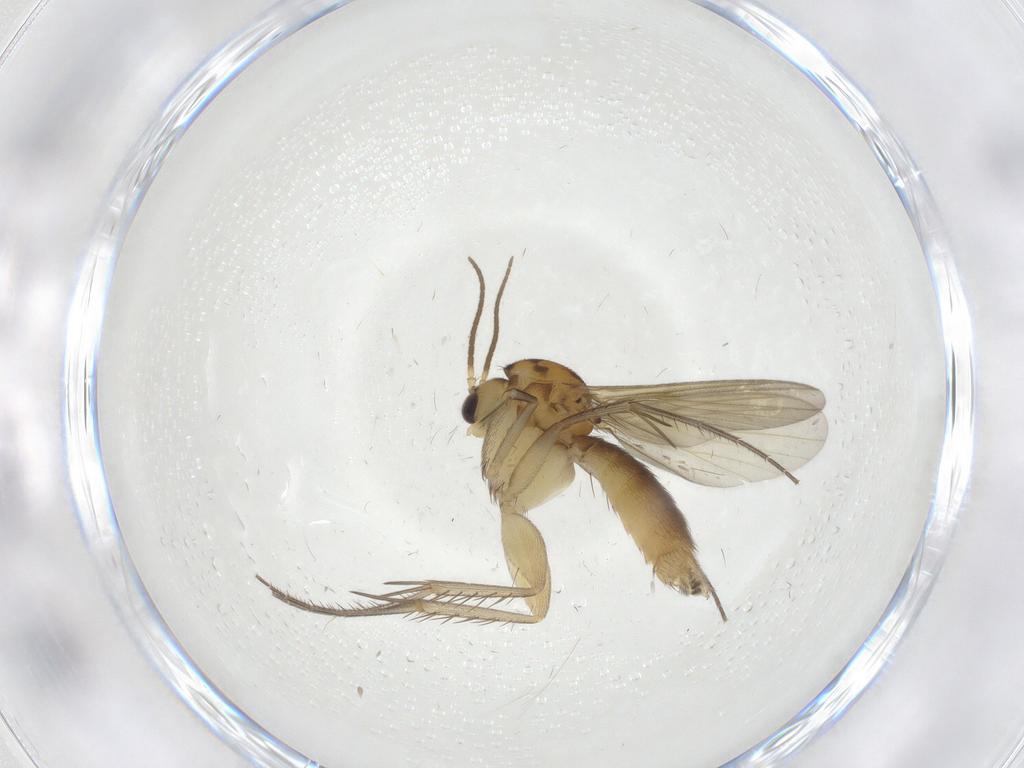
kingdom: Animalia
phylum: Arthropoda
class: Insecta
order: Diptera
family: Mycetophilidae
